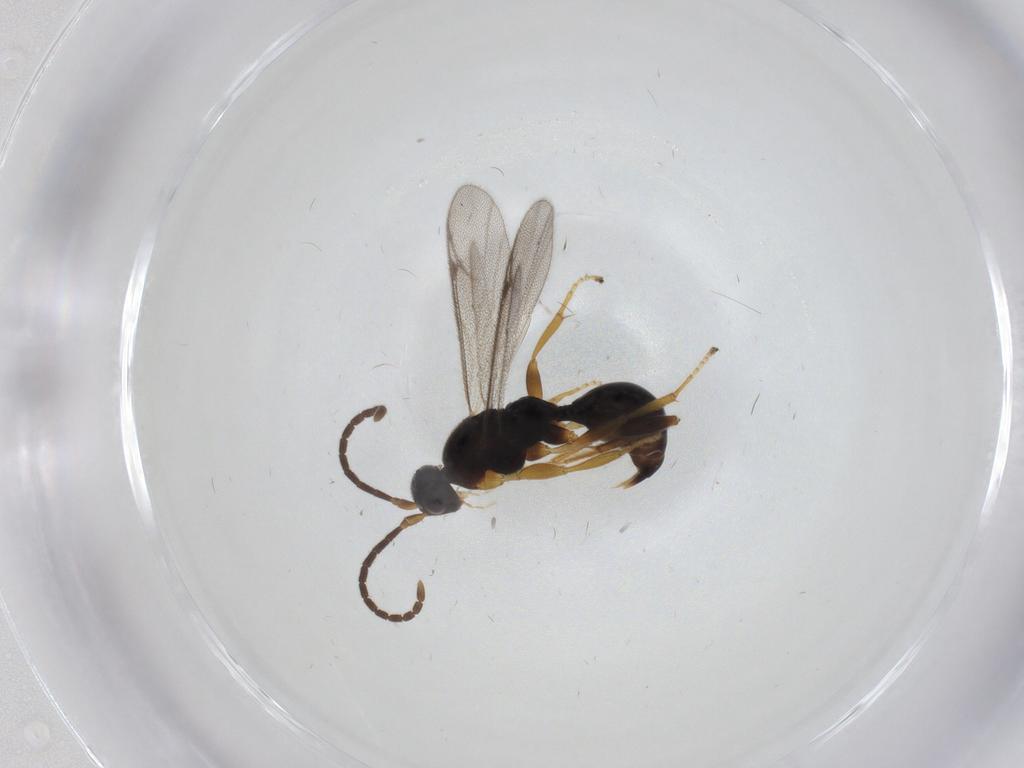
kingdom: Animalia
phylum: Arthropoda
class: Insecta
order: Hymenoptera
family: Proctotrupidae
